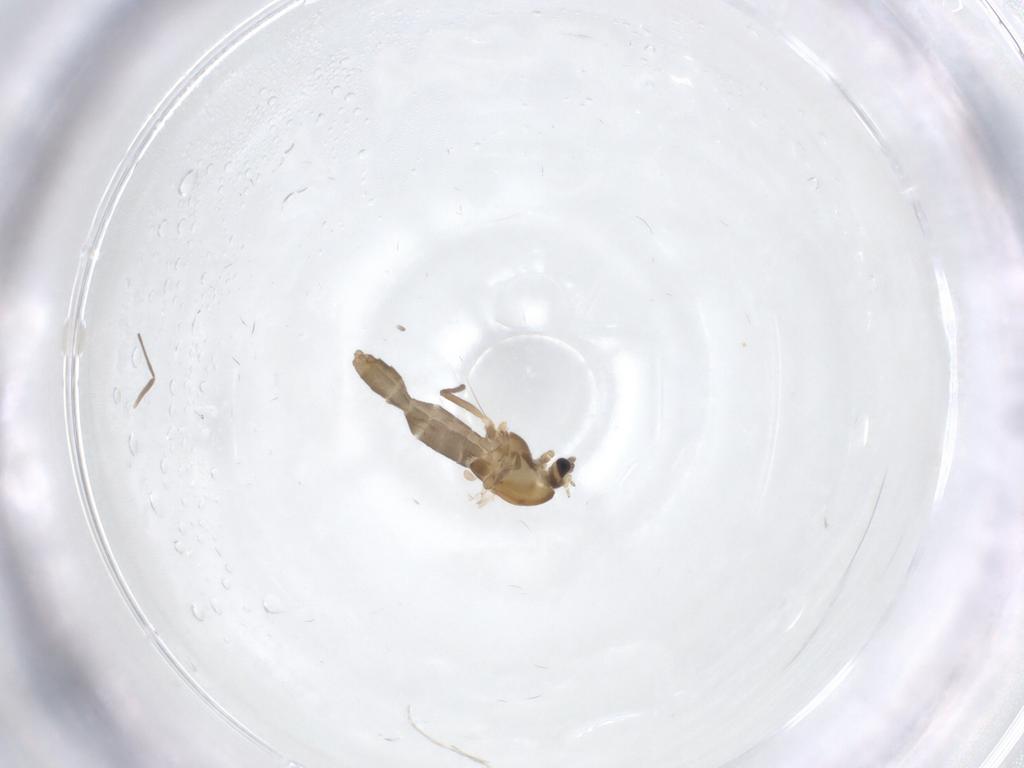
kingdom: Animalia
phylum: Arthropoda
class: Insecta
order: Diptera
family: Chironomidae
